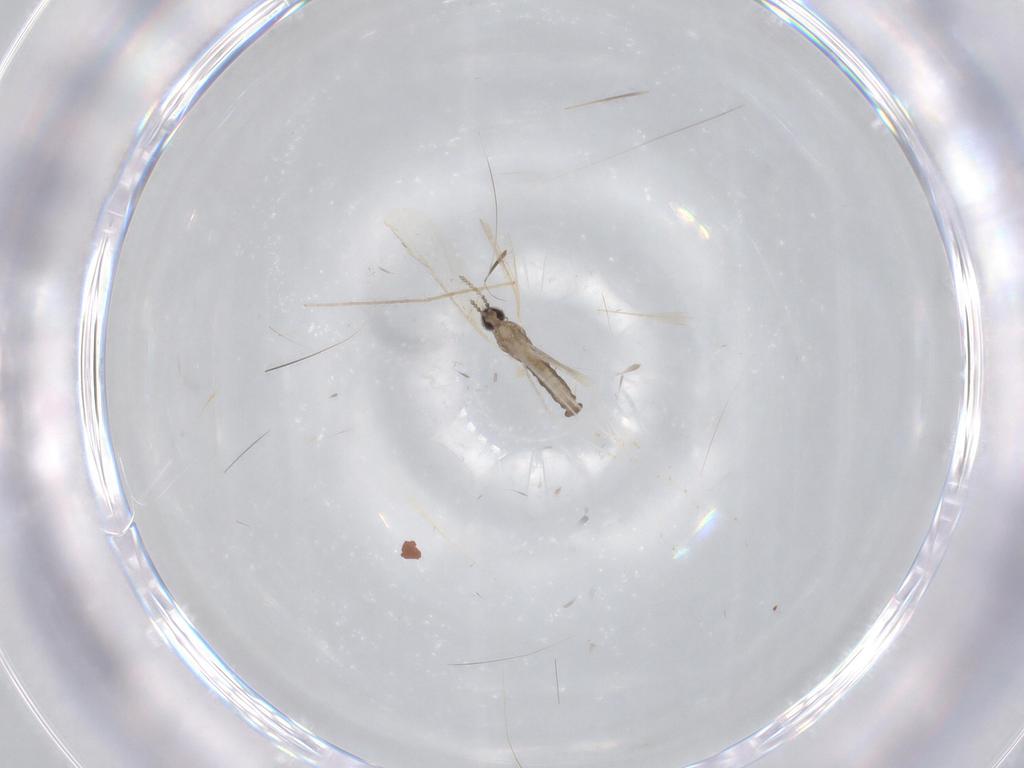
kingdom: Animalia
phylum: Arthropoda
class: Insecta
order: Diptera
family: Cecidomyiidae
